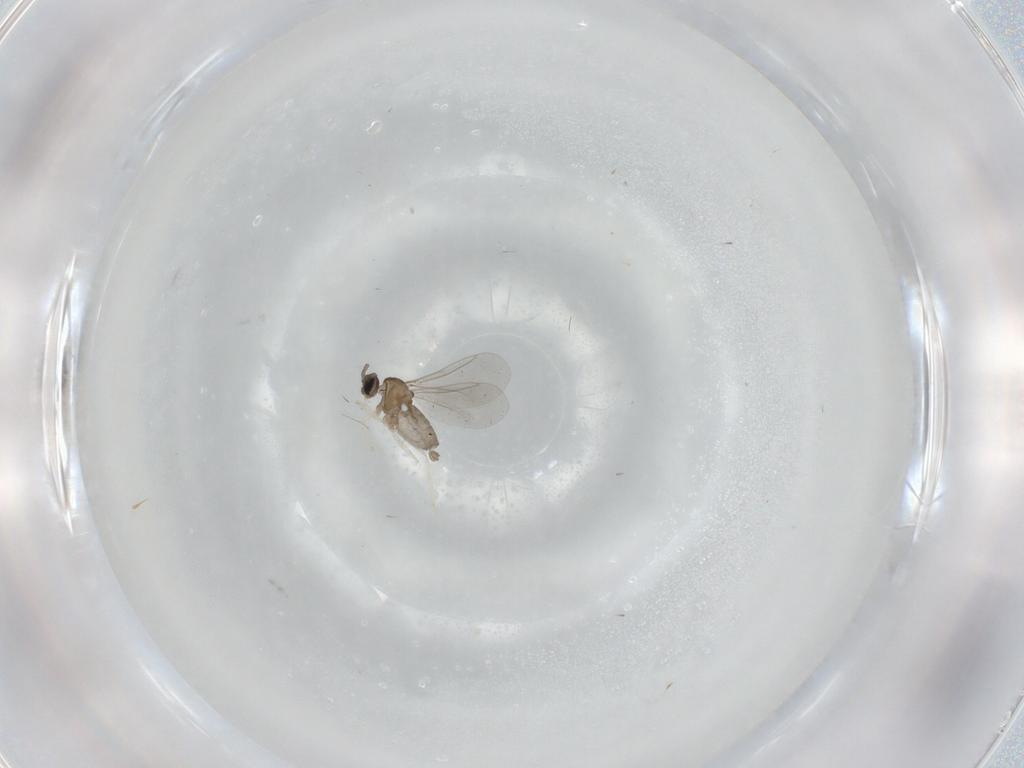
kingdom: Animalia
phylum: Arthropoda
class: Insecta
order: Diptera
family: Cecidomyiidae
